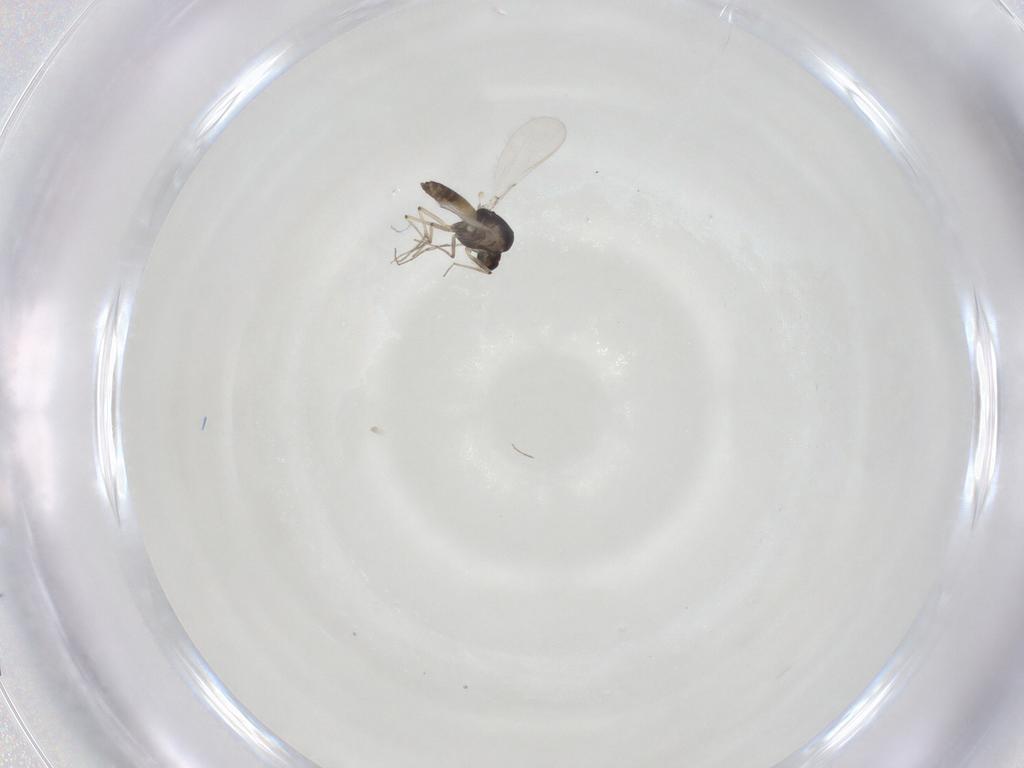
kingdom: Animalia
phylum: Arthropoda
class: Insecta
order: Diptera
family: Chironomidae
